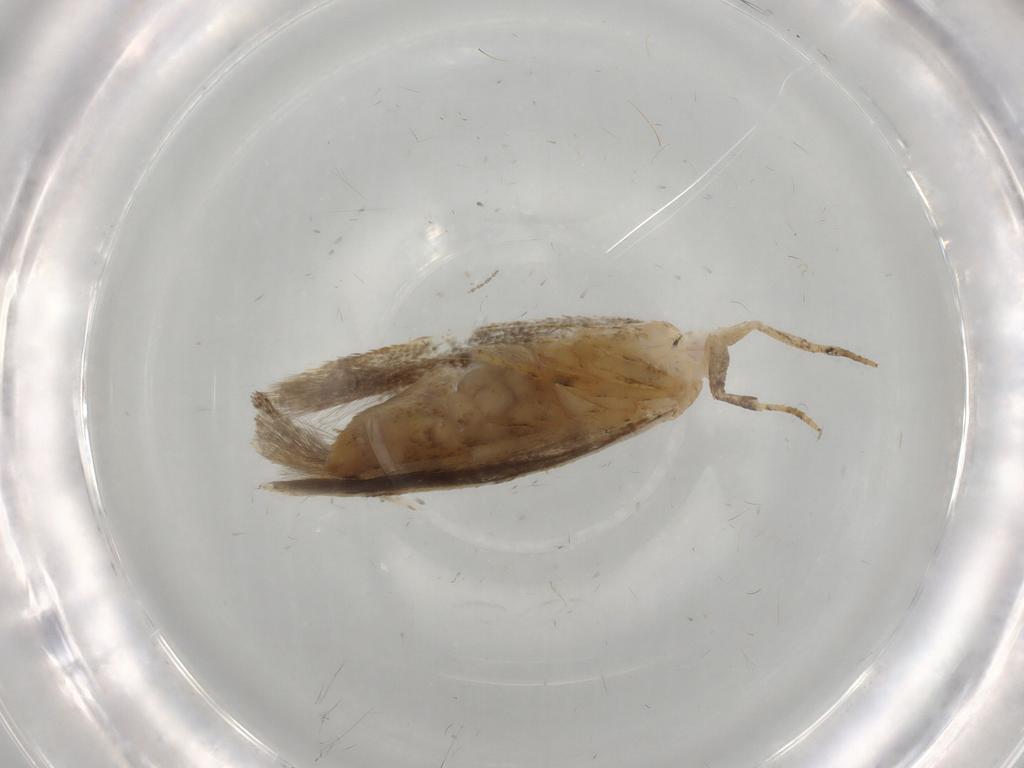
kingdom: Animalia
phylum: Arthropoda
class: Insecta
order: Lepidoptera
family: Gelechiidae
